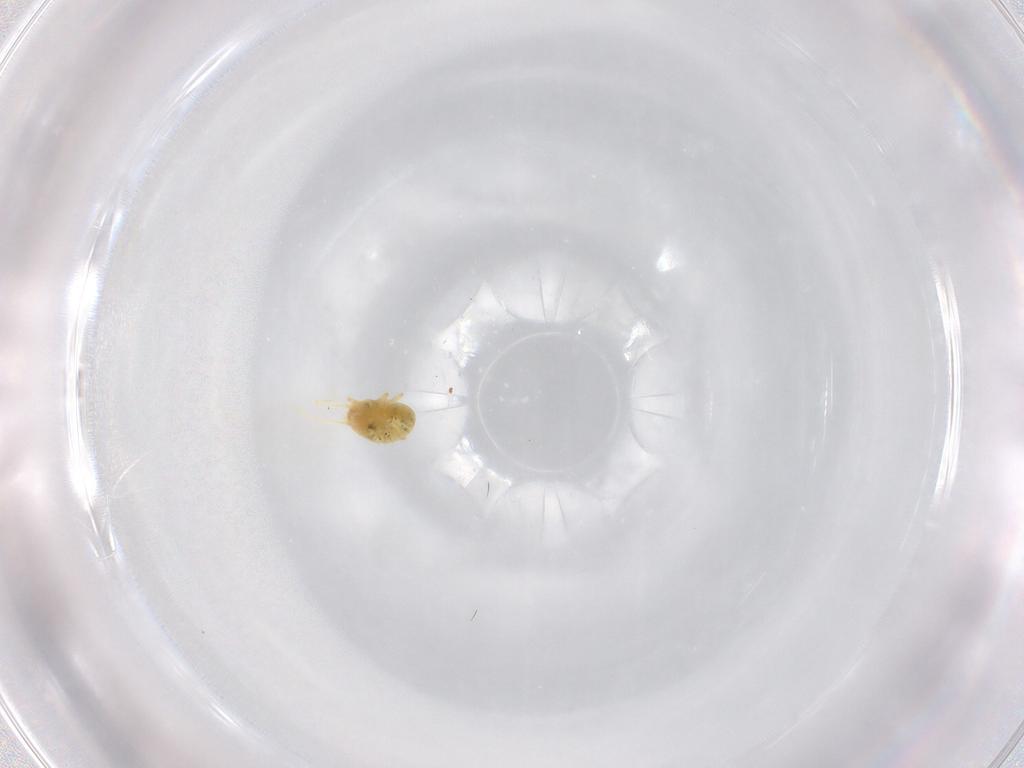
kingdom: Animalia
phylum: Arthropoda
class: Arachnida
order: Trombidiformes
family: Tetranychidae
